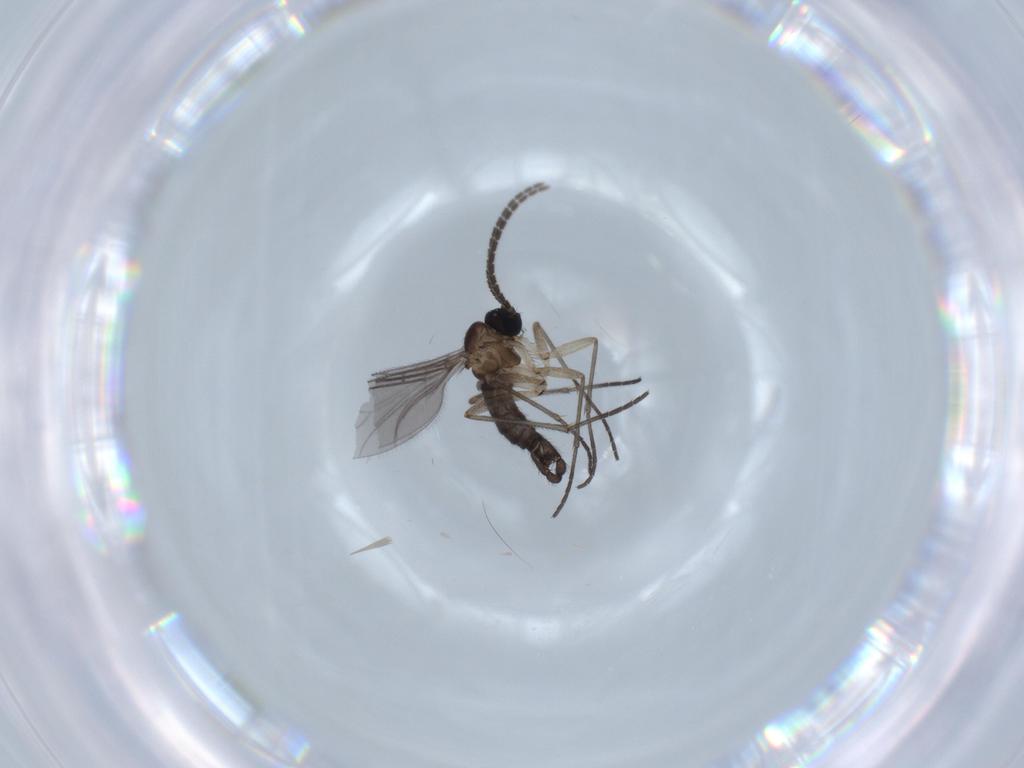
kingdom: Animalia
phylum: Arthropoda
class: Insecta
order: Diptera
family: Sciaridae
